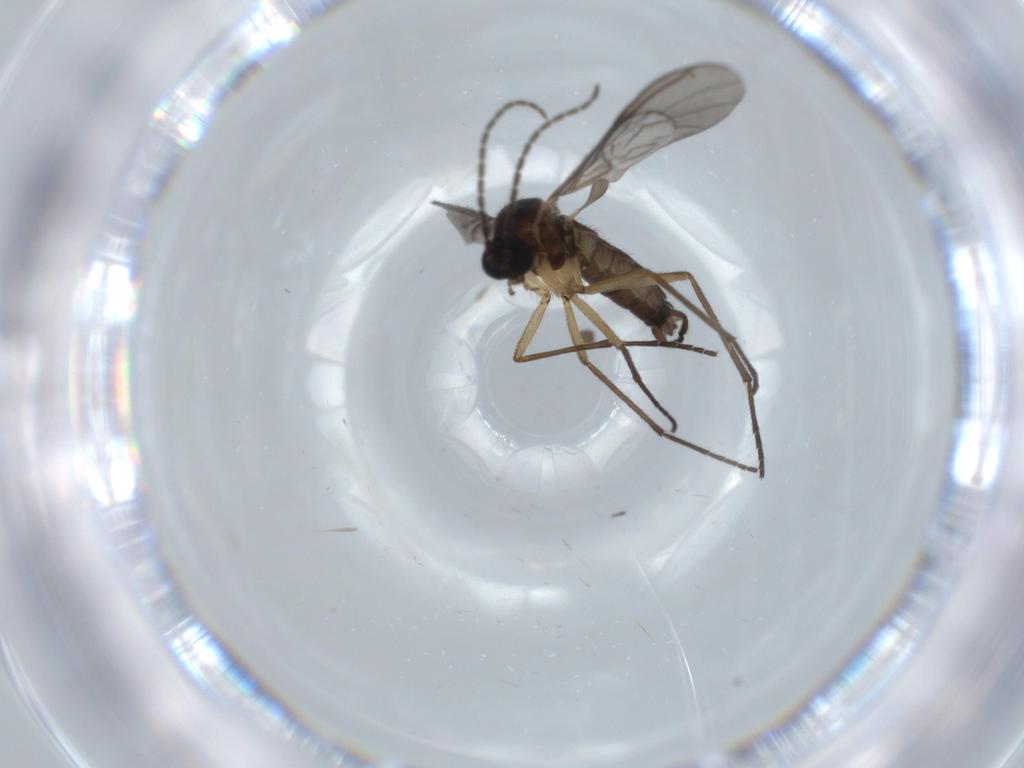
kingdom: Animalia
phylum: Arthropoda
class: Insecta
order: Diptera
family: Sciaridae
